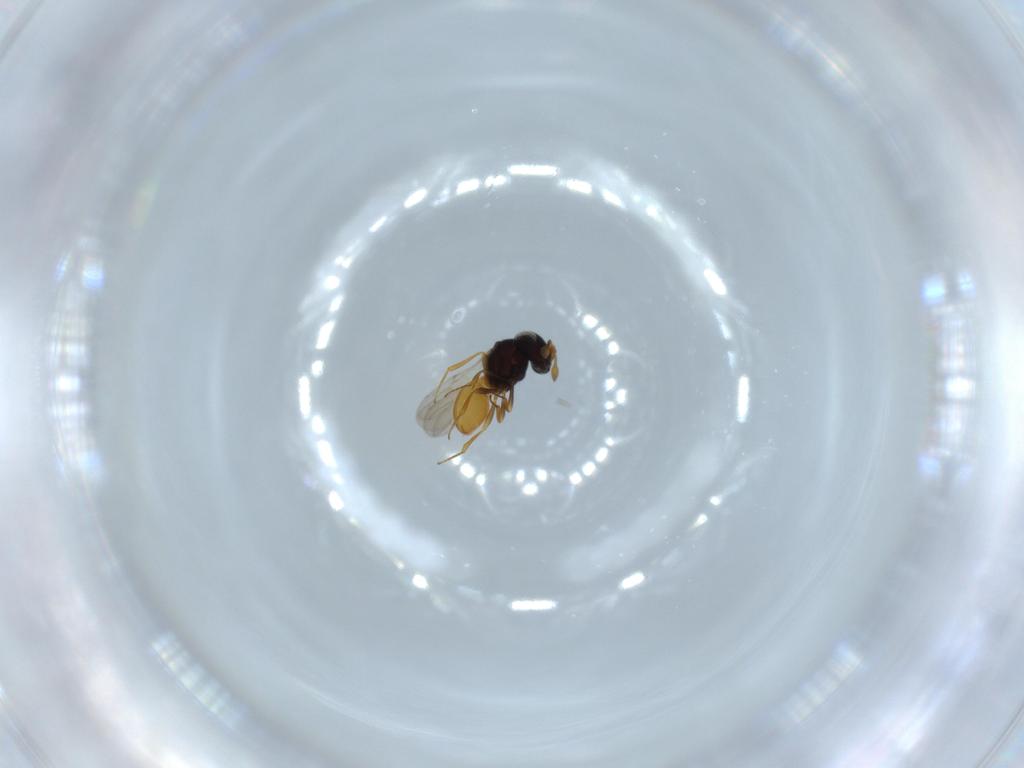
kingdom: Animalia
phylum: Arthropoda
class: Insecta
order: Hymenoptera
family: Scelionidae
